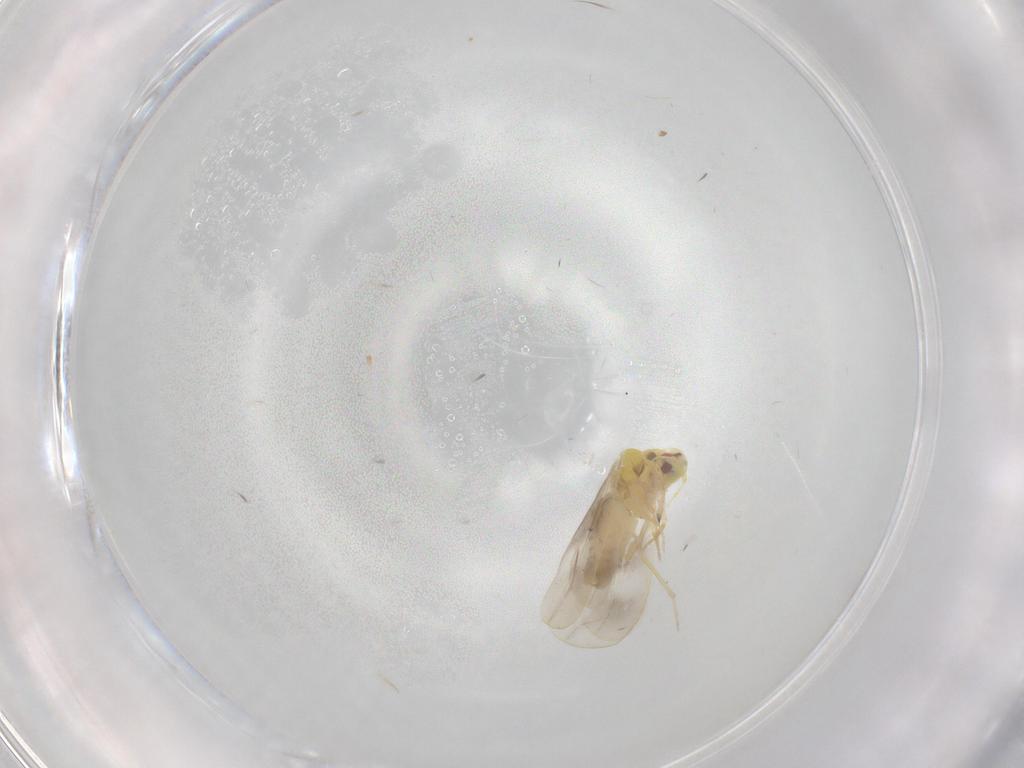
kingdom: Animalia
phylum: Arthropoda
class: Insecta
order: Hemiptera
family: Aleyrodidae
